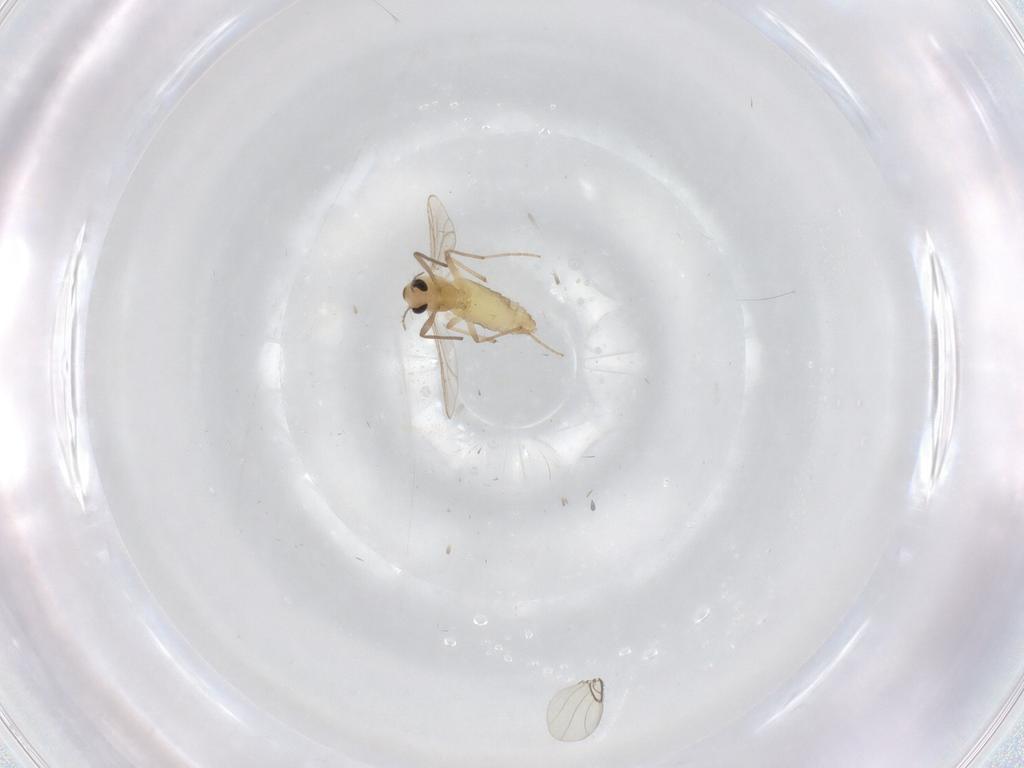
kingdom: Animalia
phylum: Arthropoda
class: Insecta
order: Diptera
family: Chironomidae
